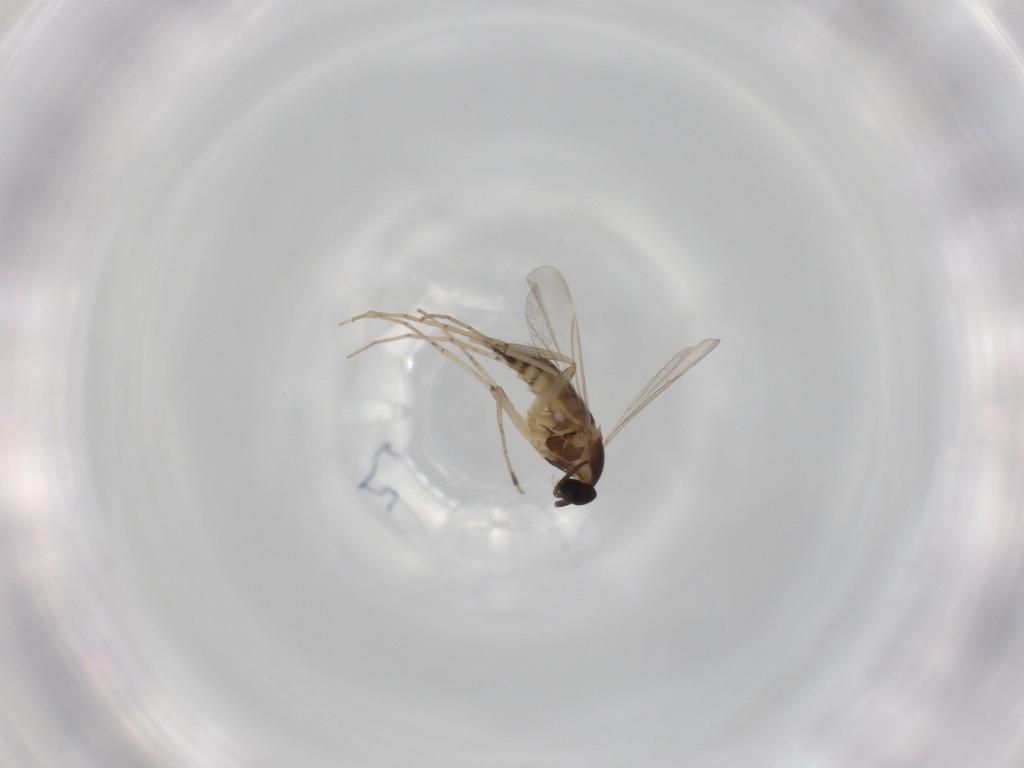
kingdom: Animalia
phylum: Arthropoda
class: Insecta
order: Diptera
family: Cecidomyiidae
